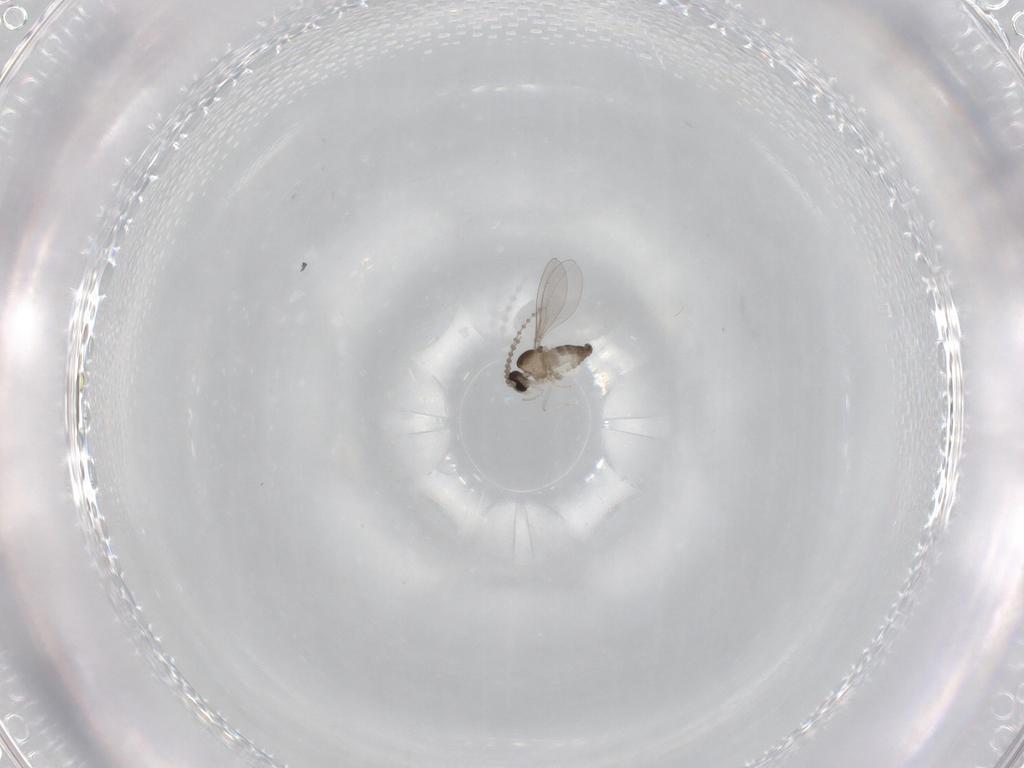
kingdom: Animalia
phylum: Arthropoda
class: Insecta
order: Diptera
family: Cecidomyiidae
